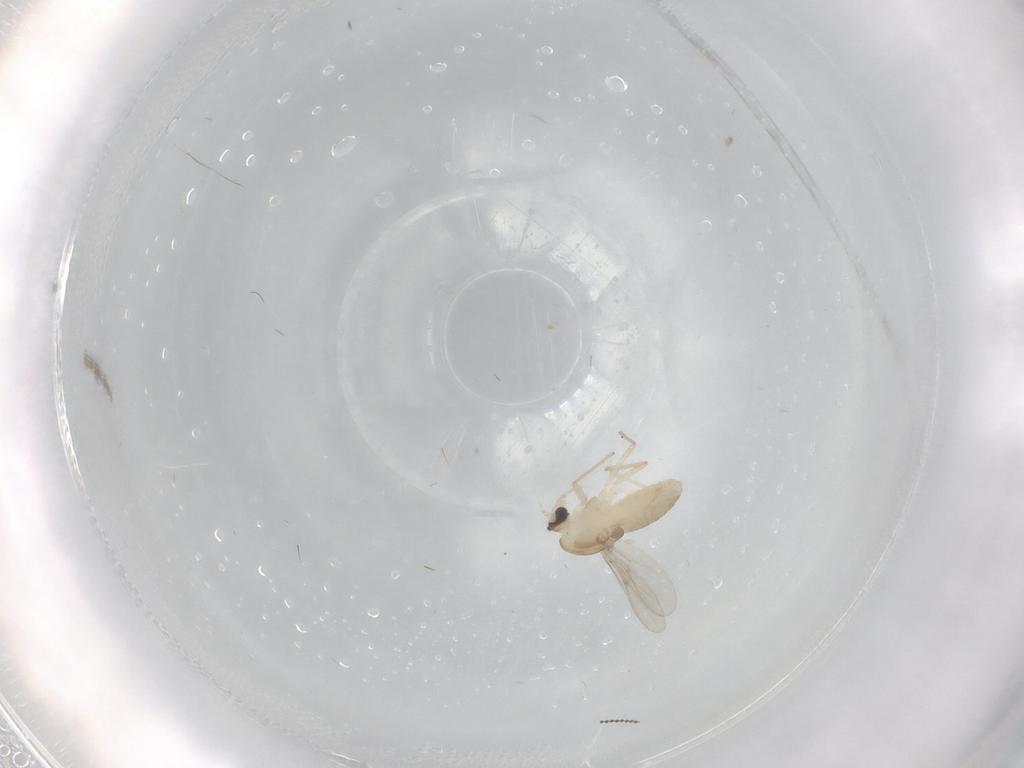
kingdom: Animalia
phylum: Arthropoda
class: Insecta
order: Diptera
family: Chironomidae
